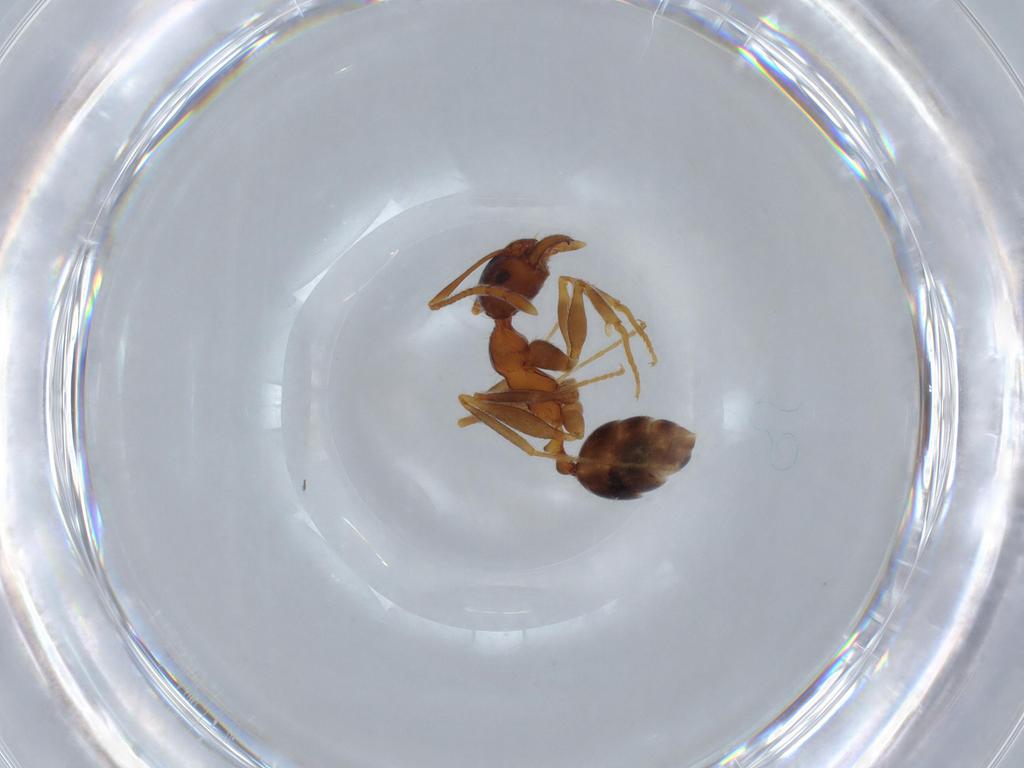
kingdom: Animalia
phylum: Arthropoda
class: Insecta
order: Hymenoptera
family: Formicidae
